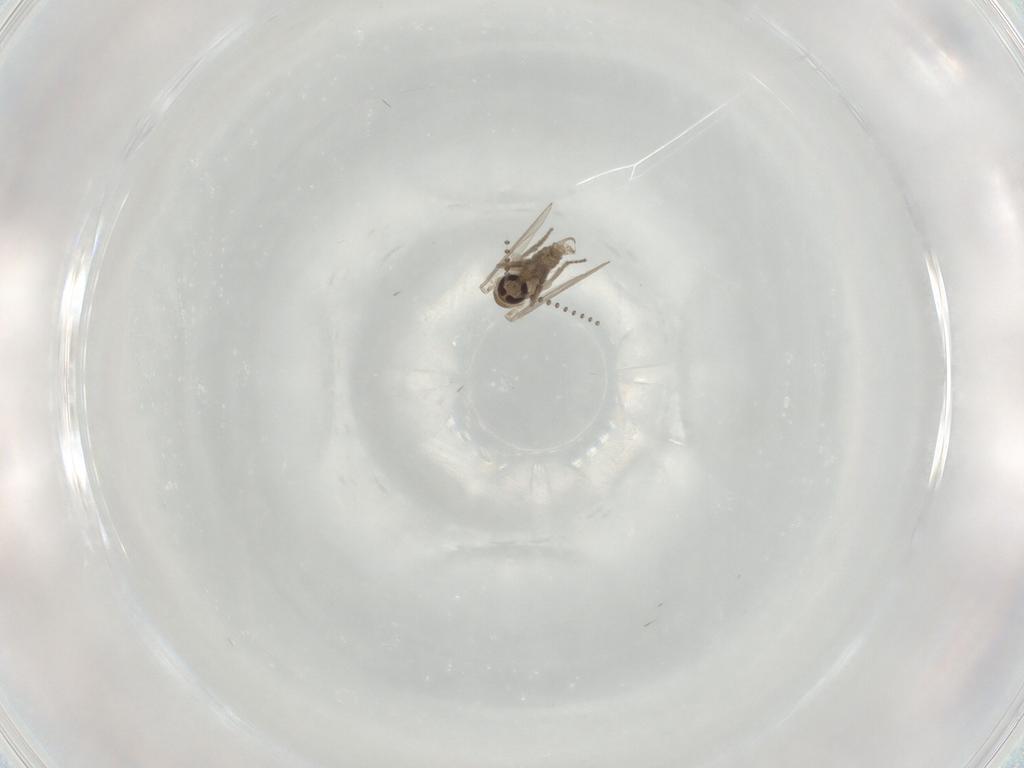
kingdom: Animalia
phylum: Arthropoda
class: Insecta
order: Diptera
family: Psychodidae
